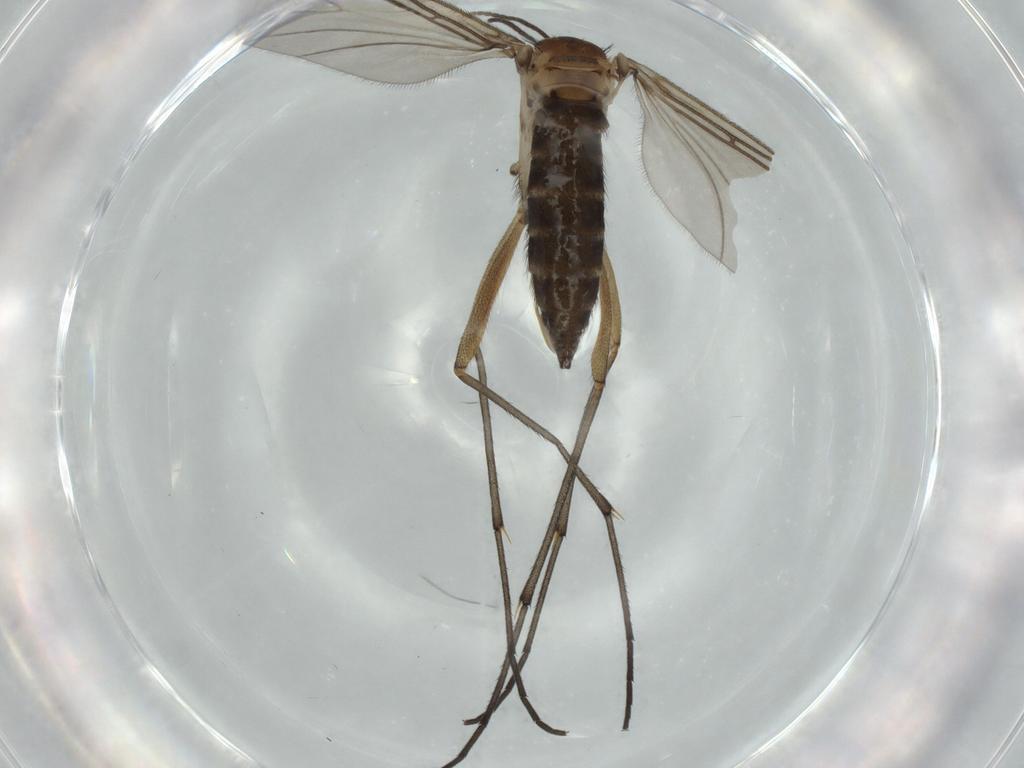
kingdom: Animalia
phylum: Arthropoda
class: Insecta
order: Diptera
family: Sciaridae
